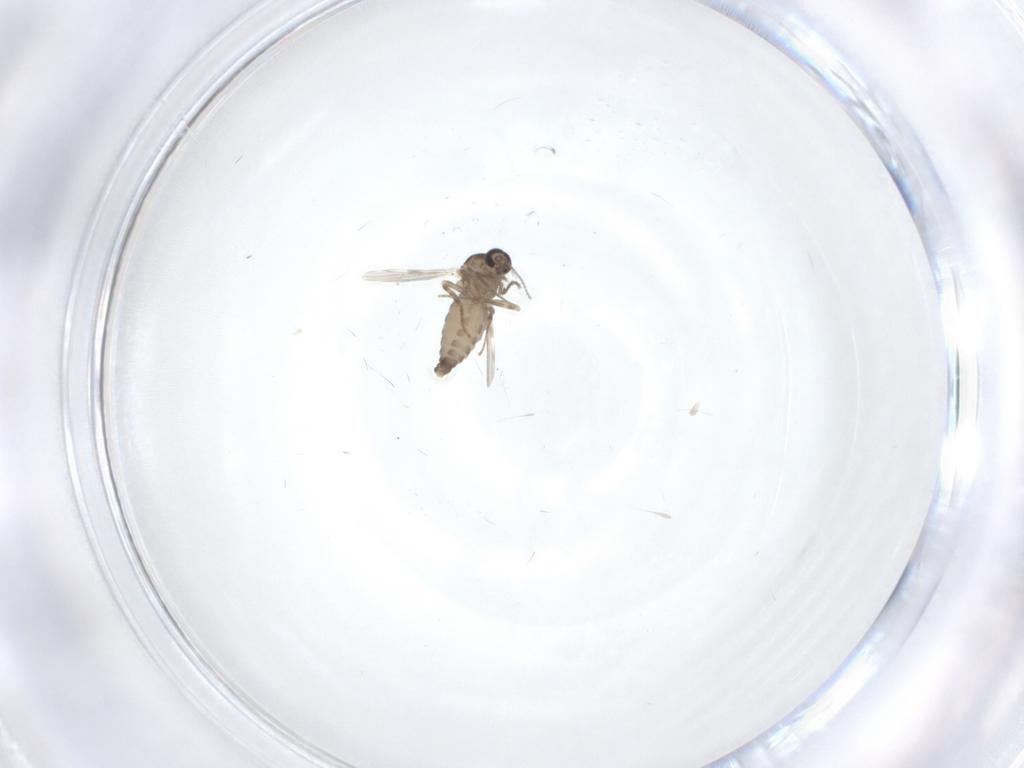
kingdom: Animalia
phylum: Arthropoda
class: Insecta
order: Diptera
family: Ceratopogonidae
